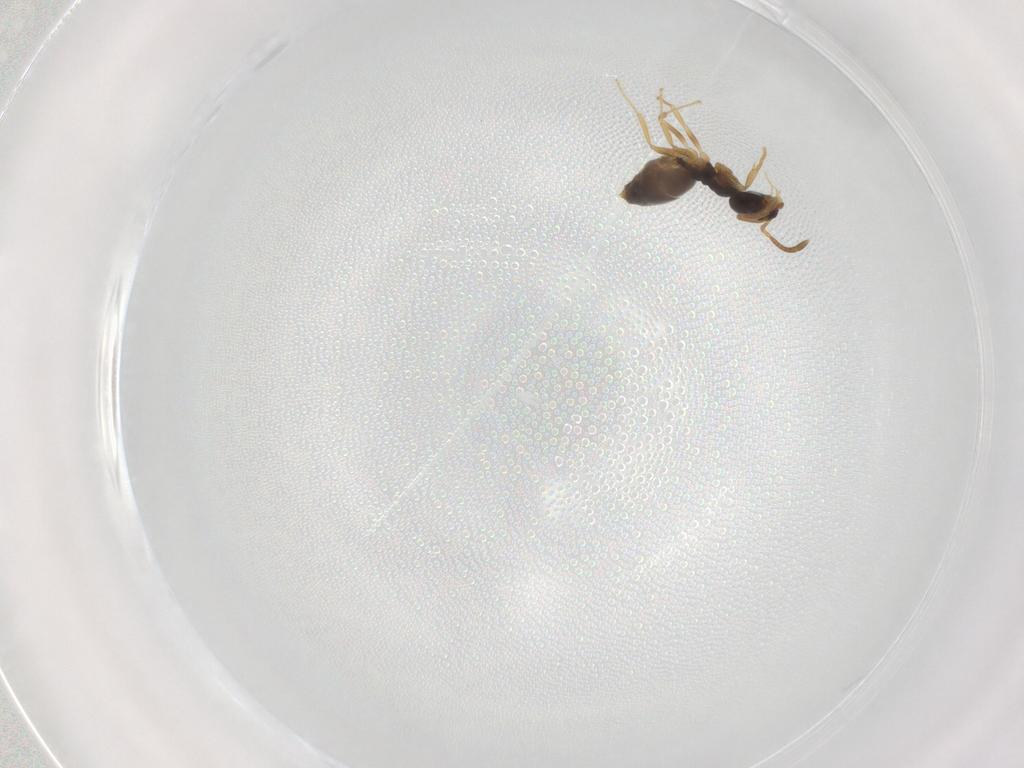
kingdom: Animalia
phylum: Arthropoda
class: Insecta
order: Hymenoptera
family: Formicidae
